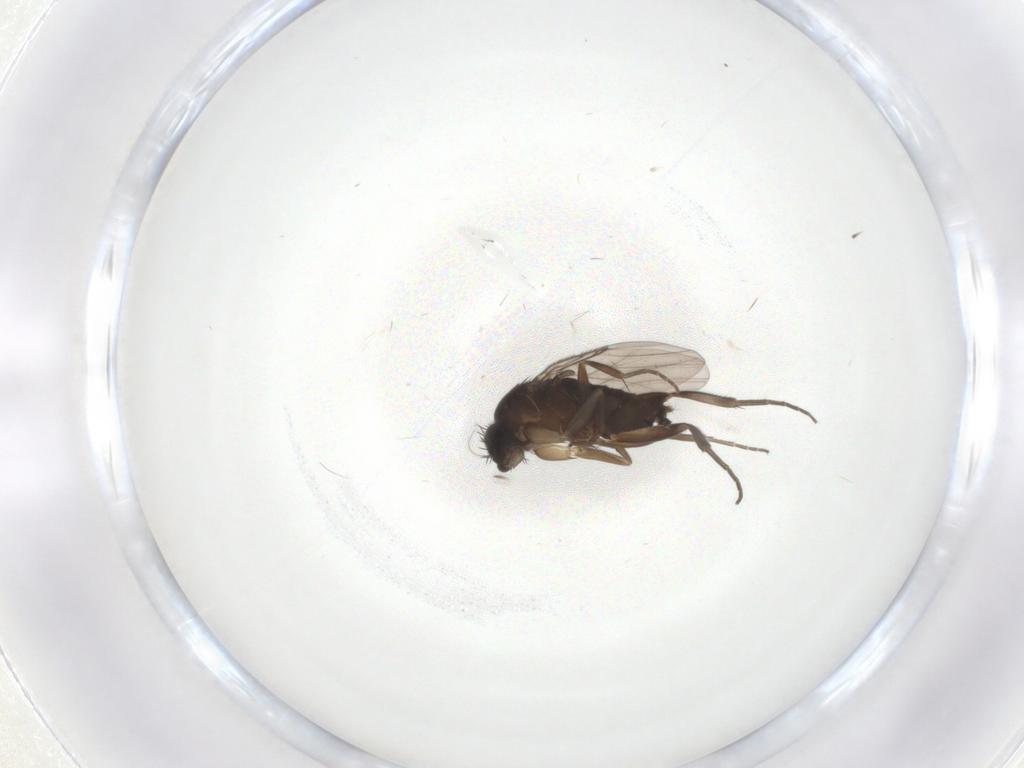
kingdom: Animalia
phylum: Arthropoda
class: Insecta
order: Diptera
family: Phoridae
